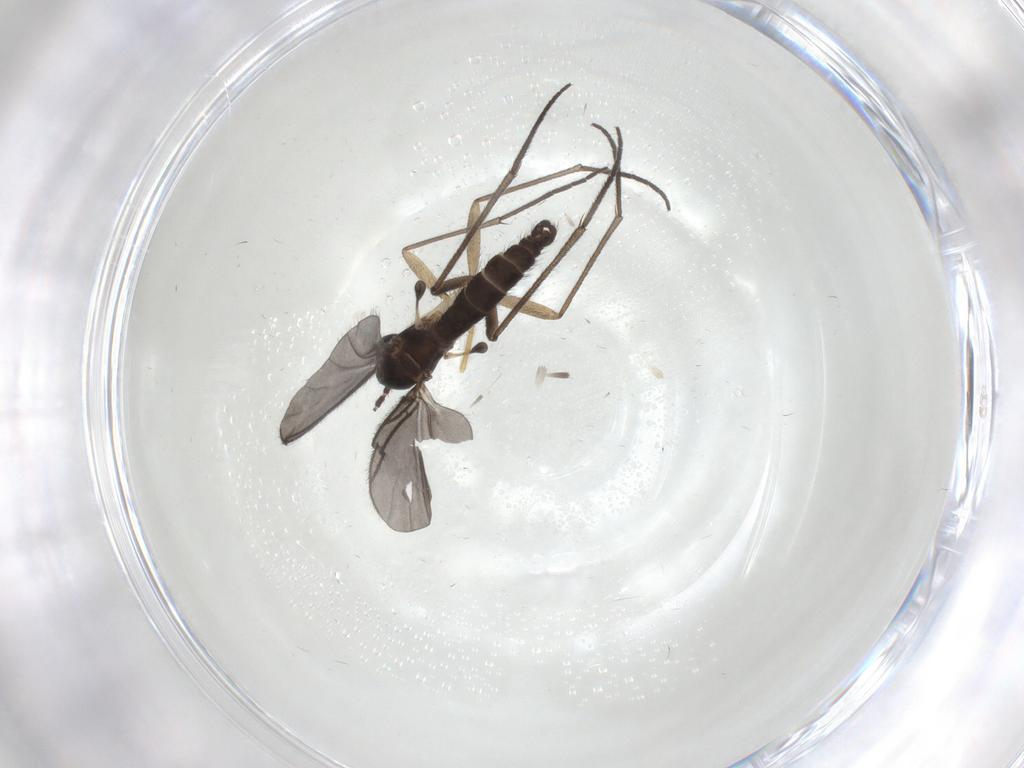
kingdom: Animalia
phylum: Arthropoda
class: Insecta
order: Diptera
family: Sciaridae
